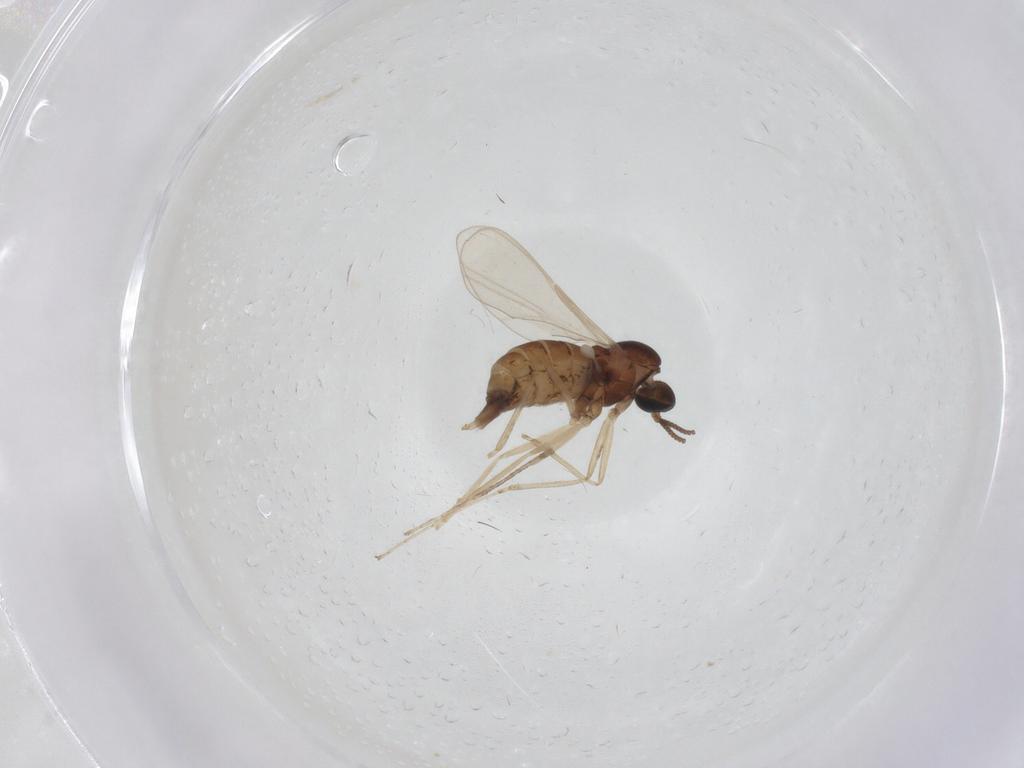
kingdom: Animalia
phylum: Arthropoda
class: Insecta
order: Diptera
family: Cecidomyiidae
